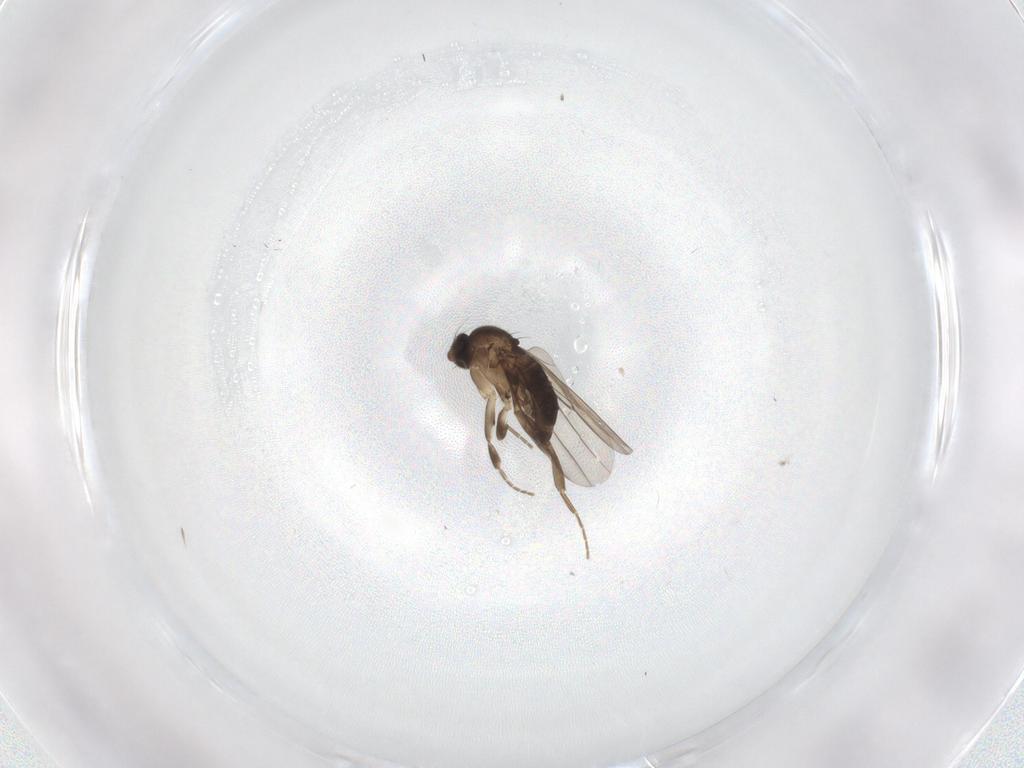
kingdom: Animalia
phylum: Arthropoda
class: Insecta
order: Diptera
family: Phoridae
